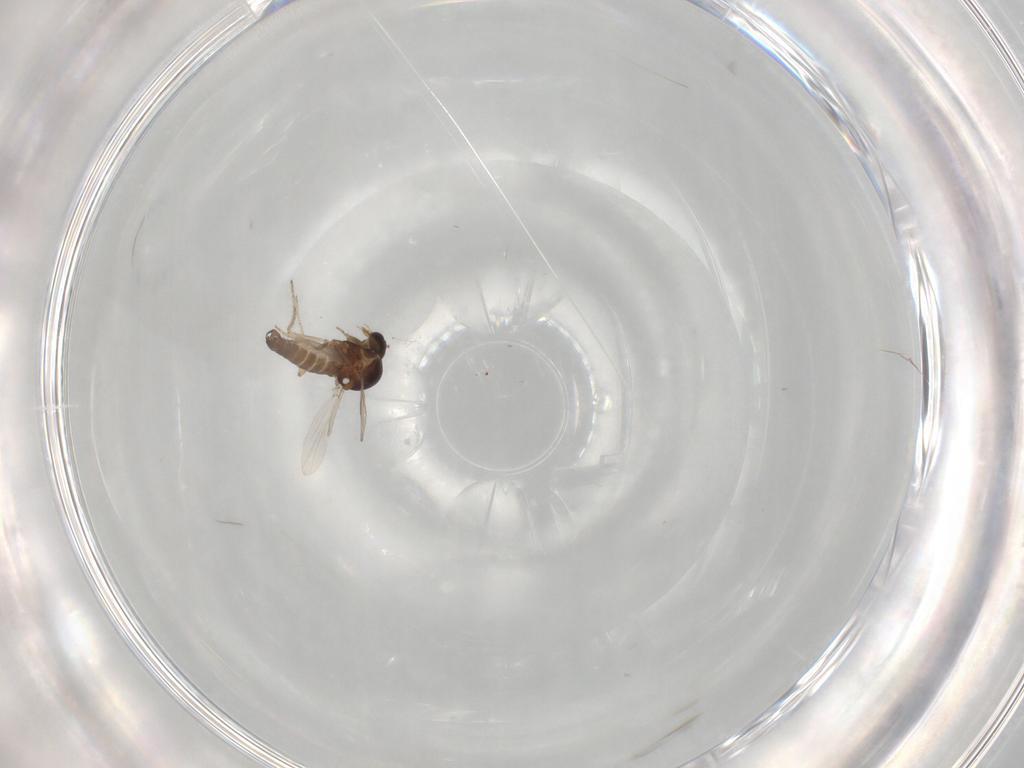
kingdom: Animalia
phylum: Arthropoda
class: Insecta
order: Diptera
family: Ceratopogonidae
